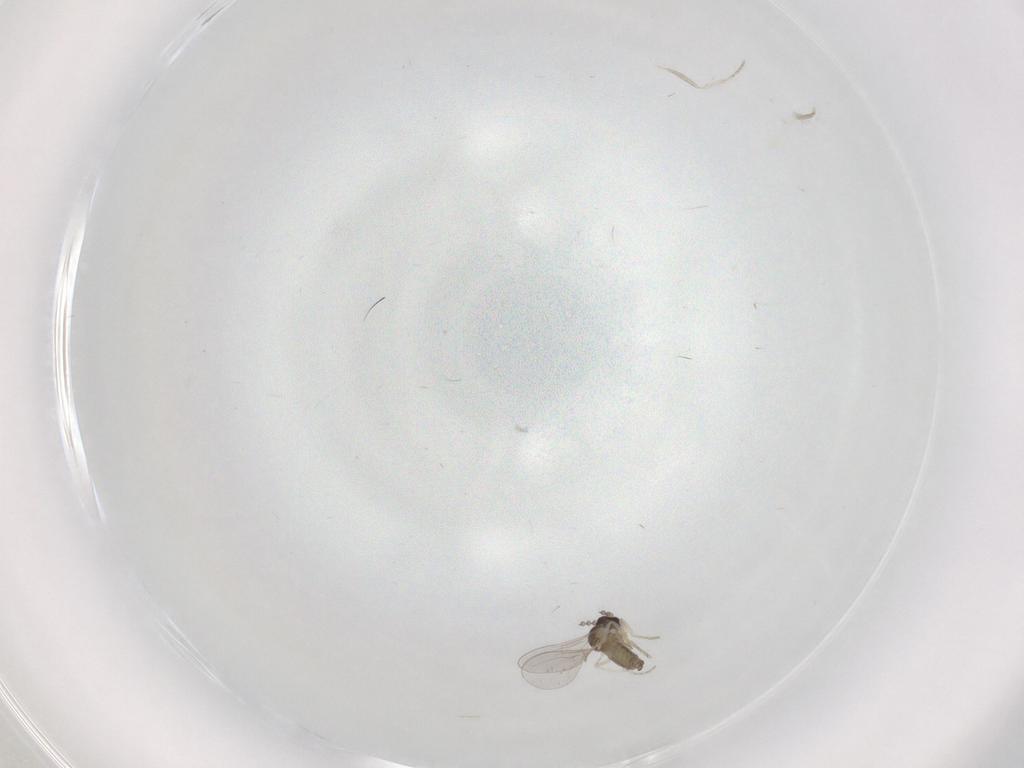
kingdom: Animalia
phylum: Arthropoda
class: Insecta
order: Diptera
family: Cecidomyiidae
